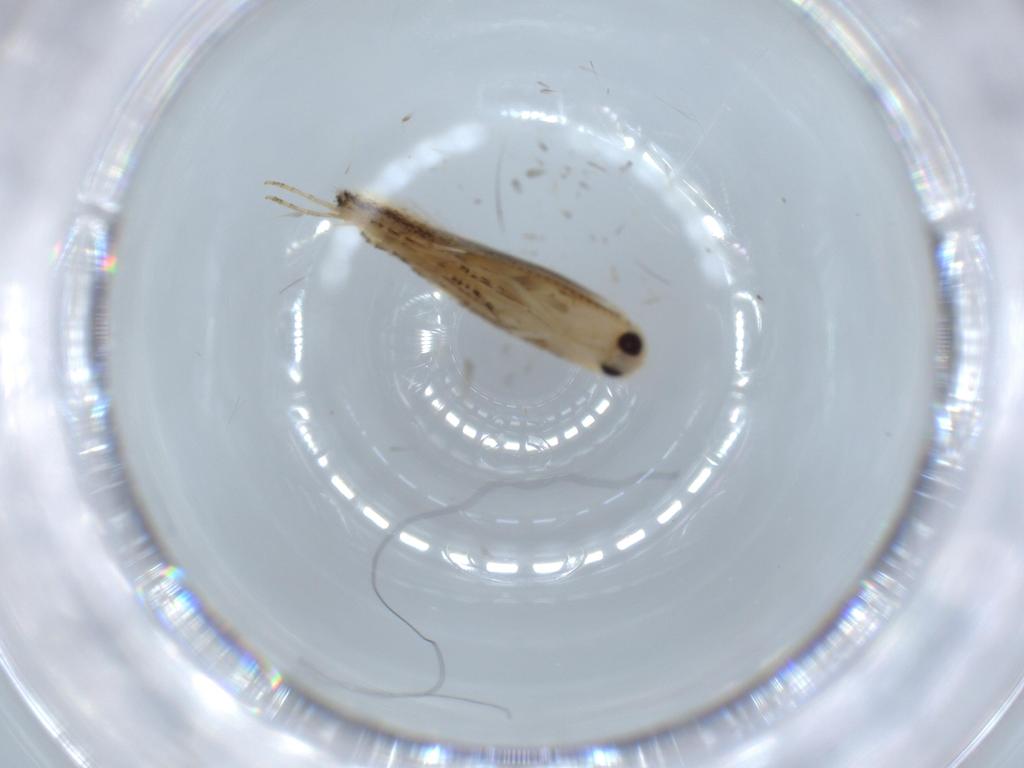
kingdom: Animalia
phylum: Arthropoda
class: Insecta
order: Lepidoptera
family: Bucculatricidae
